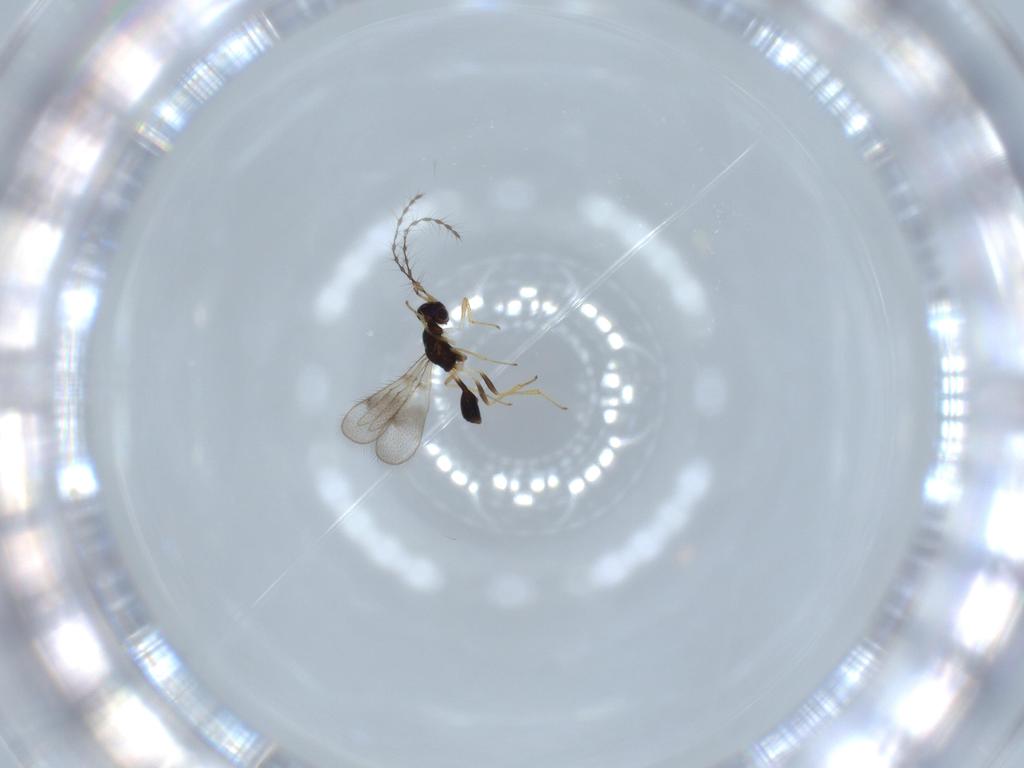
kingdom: Animalia
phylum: Arthropoda
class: Insecta
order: Hymenoptera
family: Diparidae
